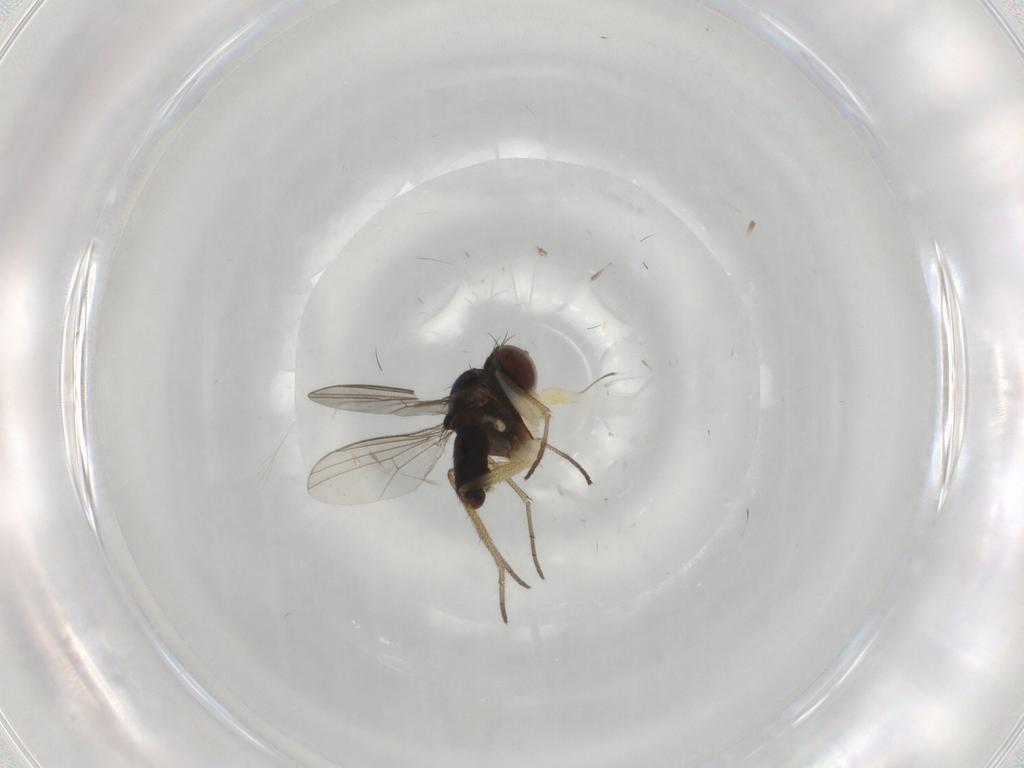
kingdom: Animalia
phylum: Arthropoda
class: Insecta
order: Diptera
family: Dolichopodidae
